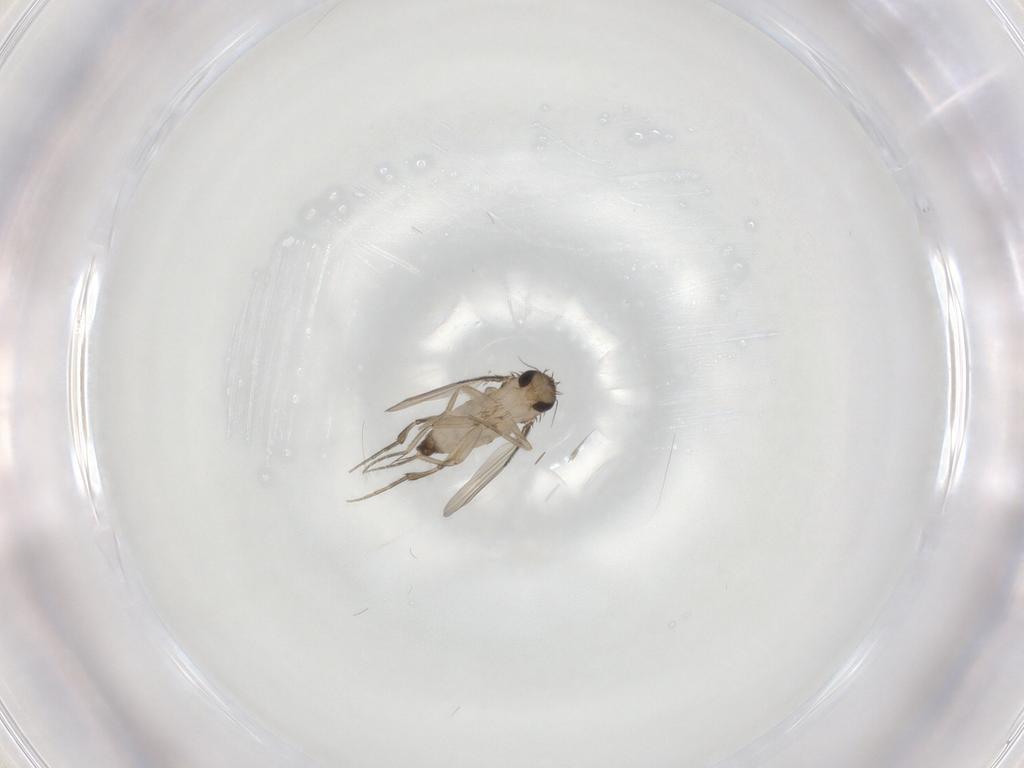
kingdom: Animalia
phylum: Arthropoda
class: Insecta
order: Diptera
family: Phoridae
